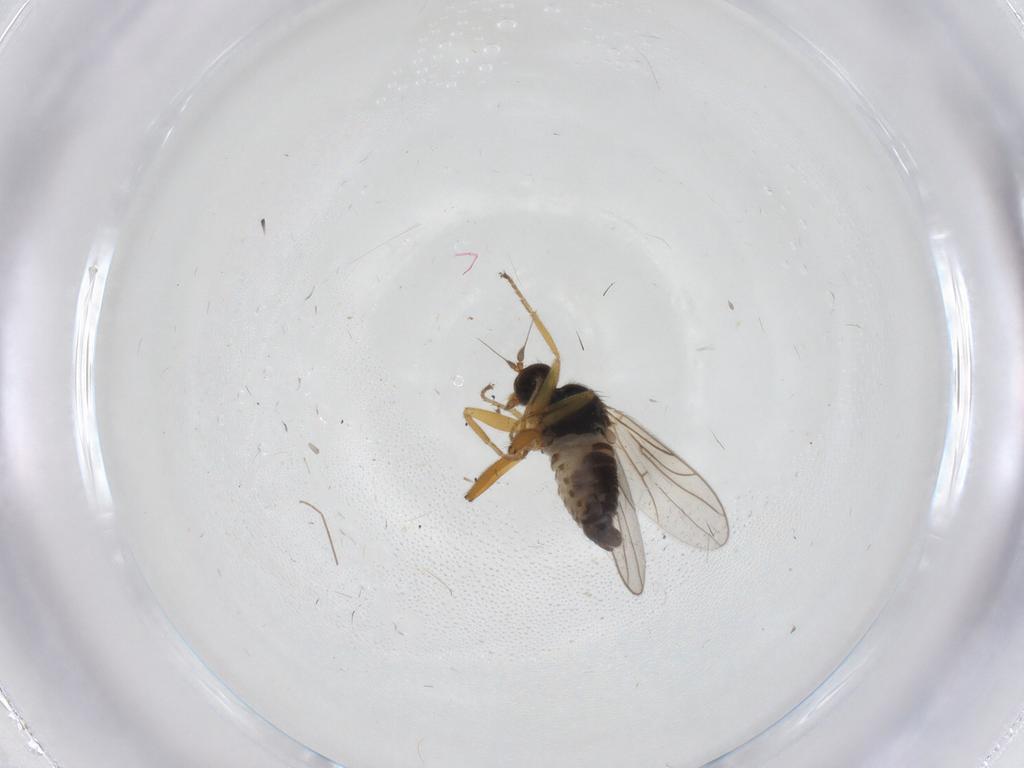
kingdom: Animalia
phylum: Arthropoda
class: Insecta
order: Diptera
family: Hybotidae
